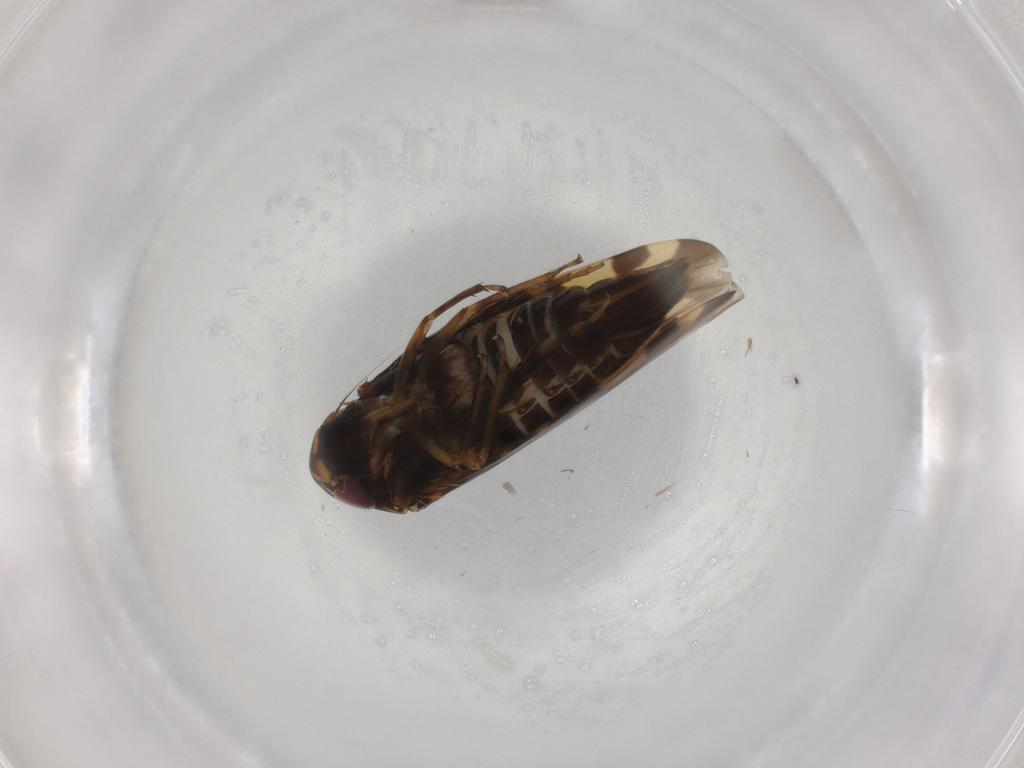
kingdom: Animalia
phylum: Arthropoda
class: Insecta
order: Hemiptera
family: Cicadellidae
